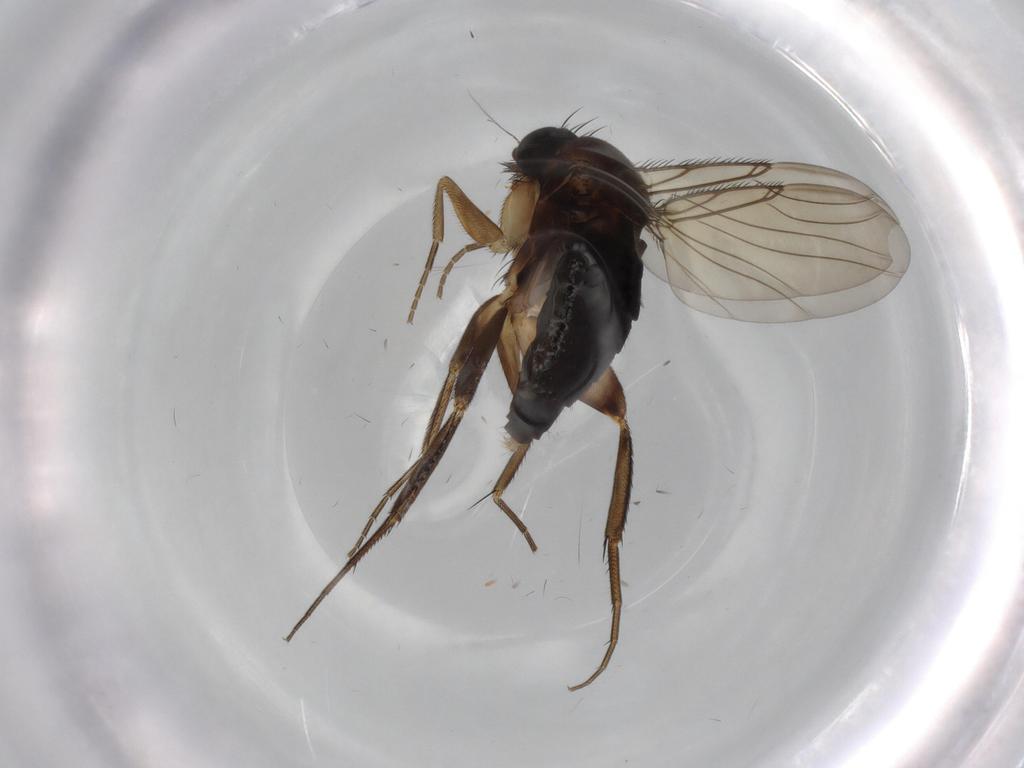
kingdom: Animalia
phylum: Arthropoda
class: Insecta
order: Diptera
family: Phoridae
